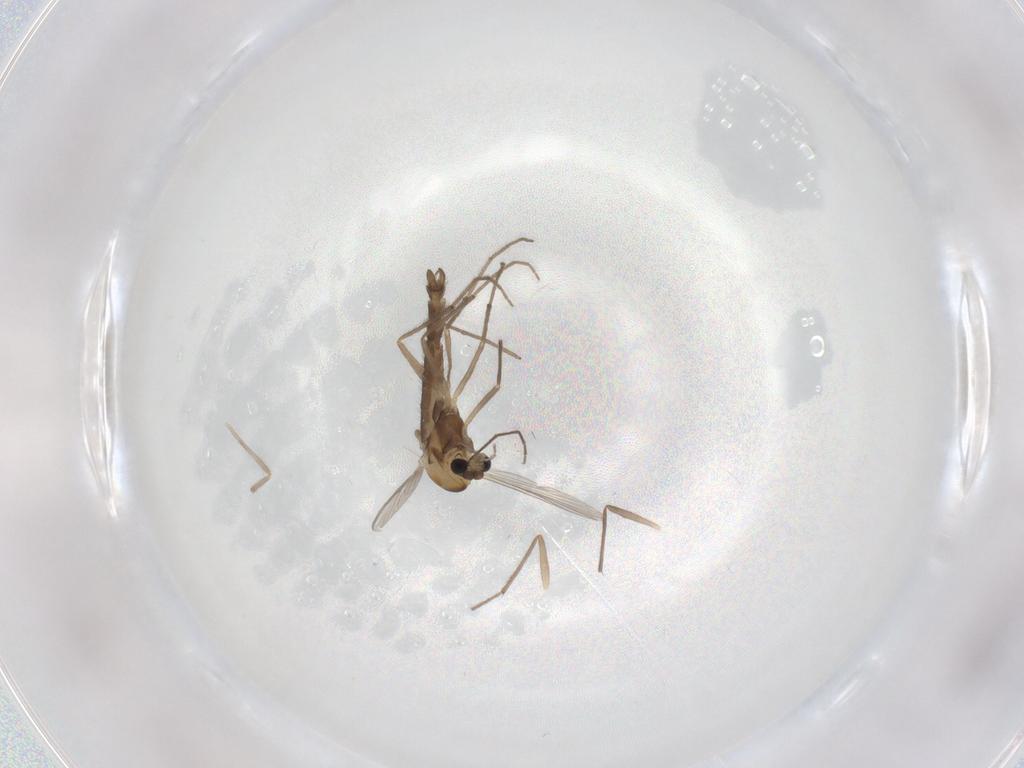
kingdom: Animalia
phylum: Arthropoda
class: Insecta
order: Diptera
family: Chironomidae
